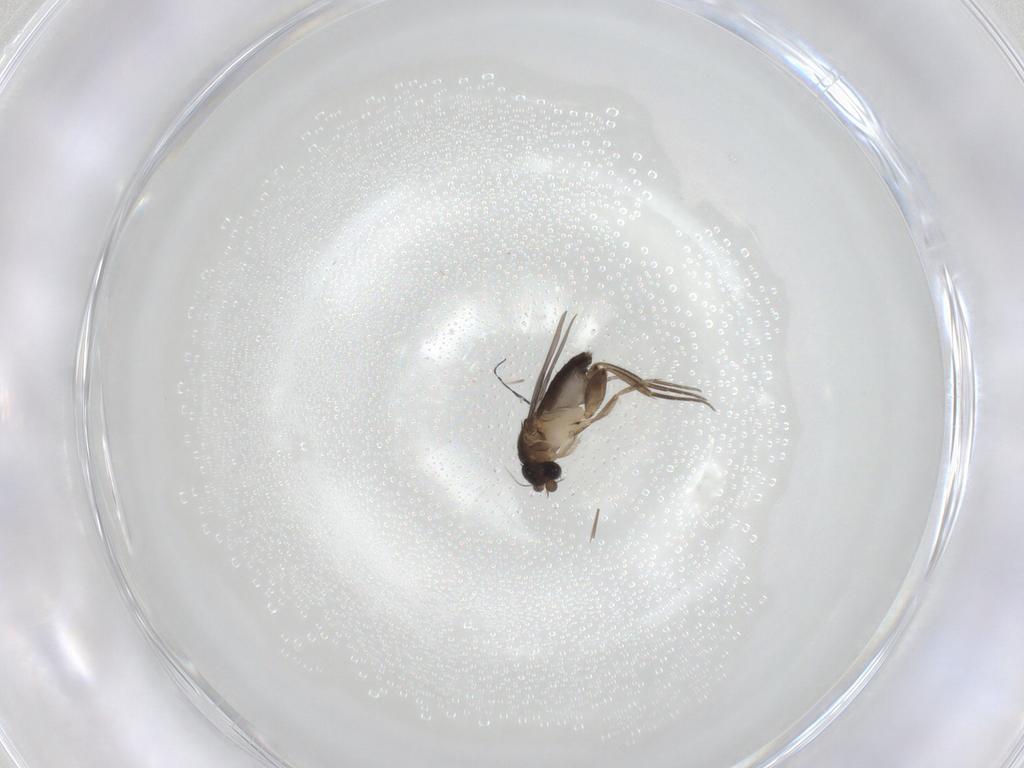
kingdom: Animalia
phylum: Arthropoda
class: Insecta
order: Diptera
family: Phoridae
